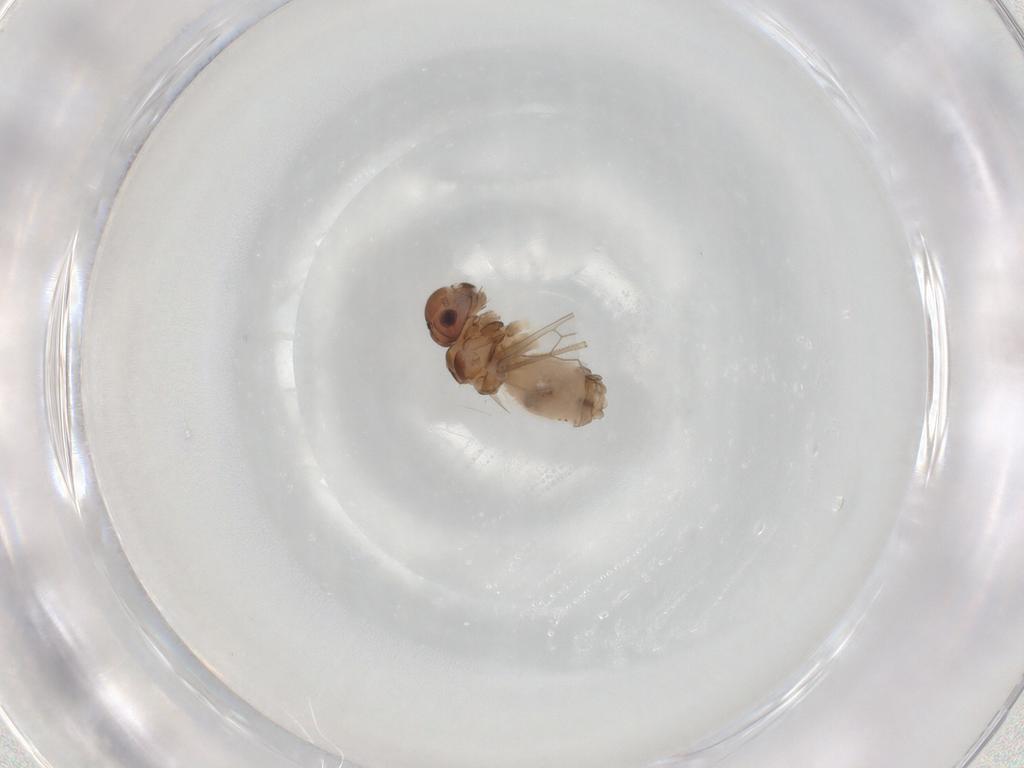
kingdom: Animalia
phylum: Arthropoda
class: Insecta
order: Psocodea
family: Peripsocidae
